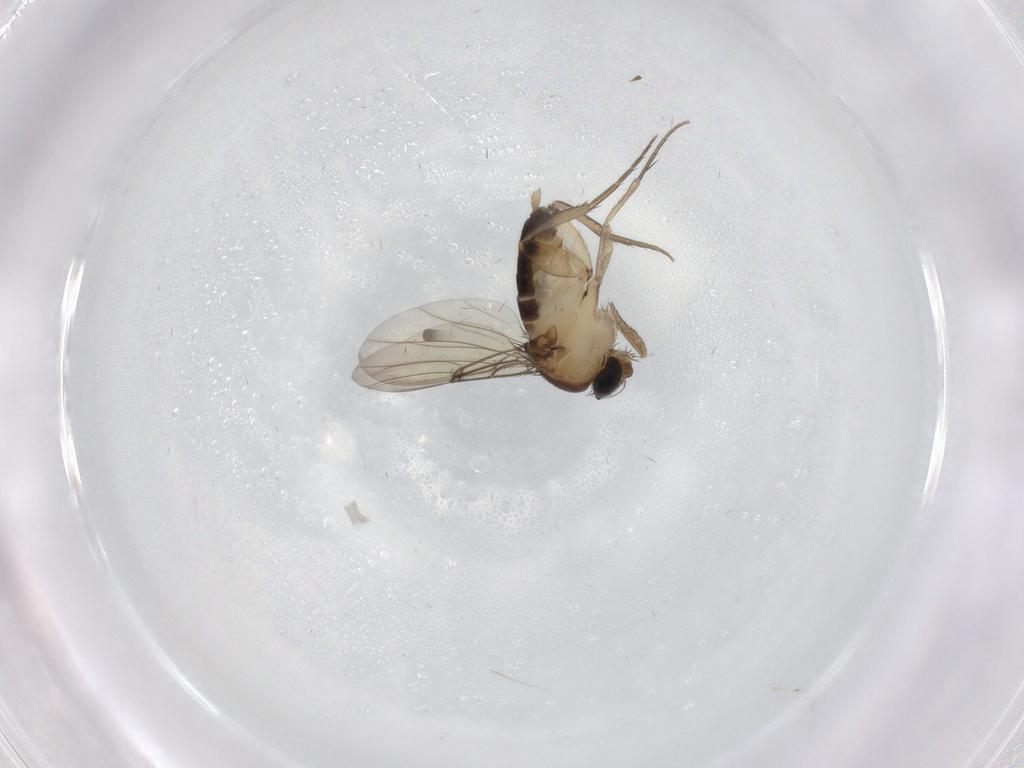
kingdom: Animalia
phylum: Arthropoda
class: Insecta
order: Diptera
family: Phoridae
